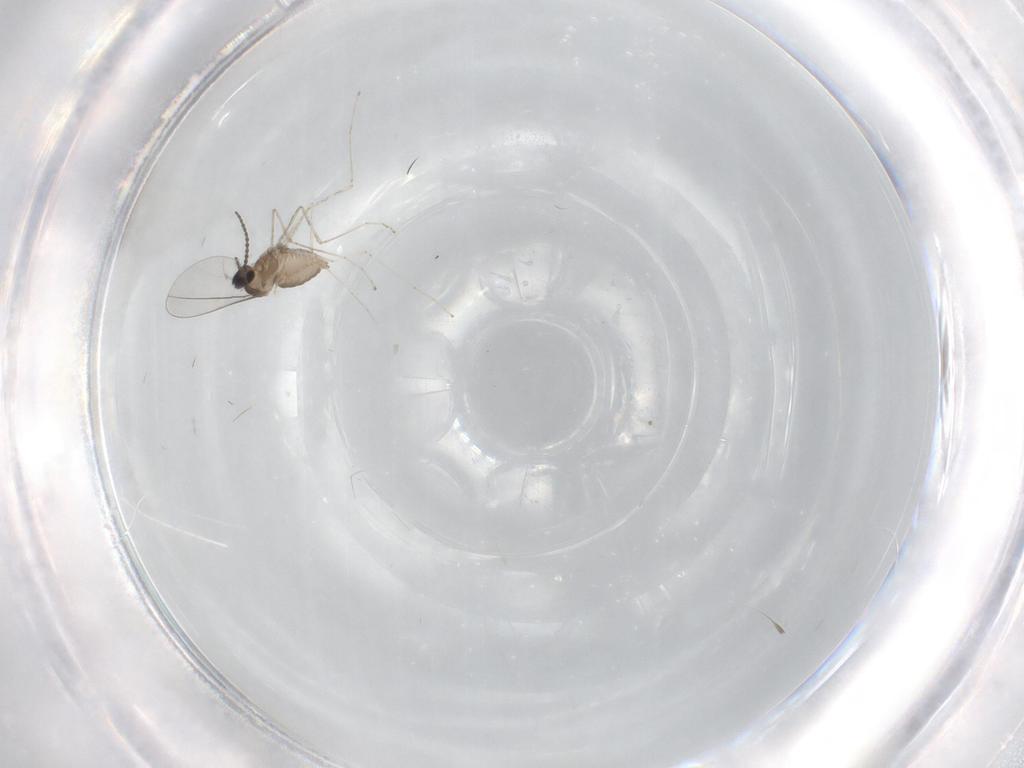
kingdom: Animalia
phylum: Arthropoda
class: Insecta
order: Diptera
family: Cecidomyiidae
